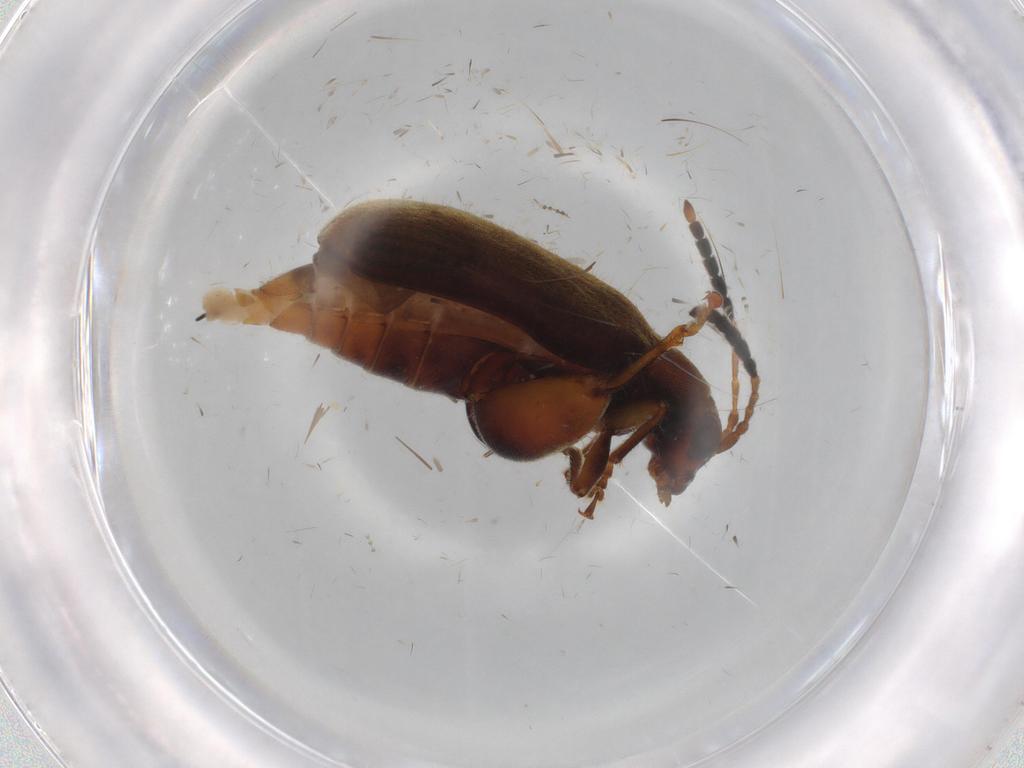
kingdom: Animalia
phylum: Arthropoda
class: Insecta
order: Coleoptera
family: Chrysomelidae
